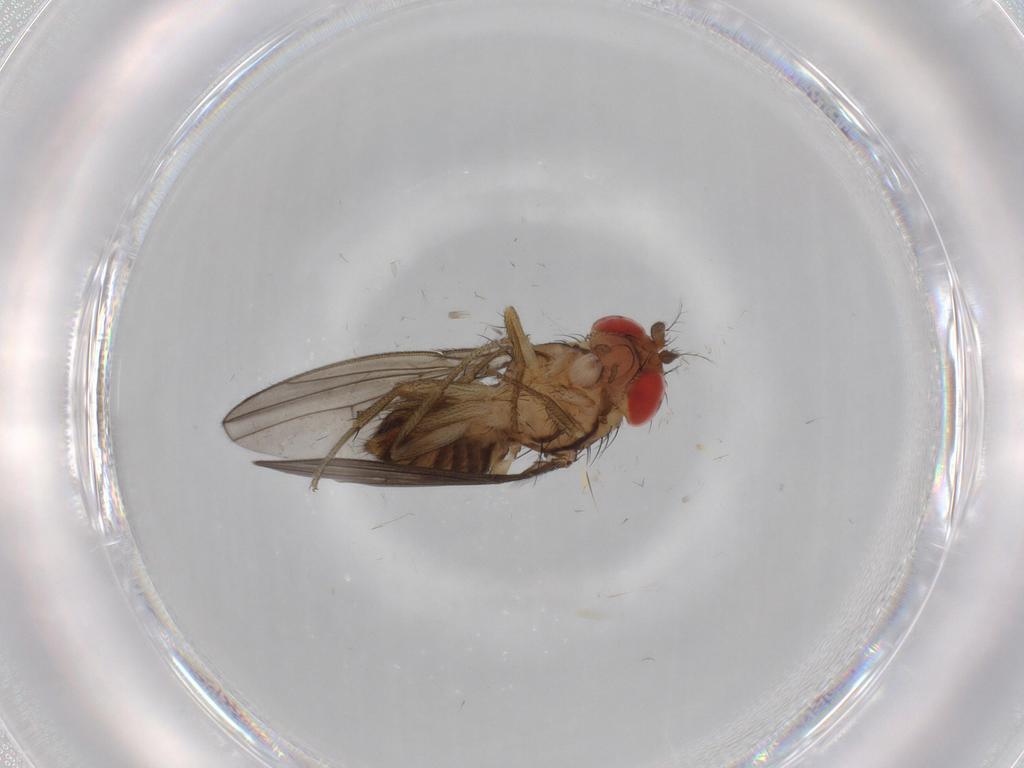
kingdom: Animalia
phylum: Arthropoda
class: Insecta
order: Diptera
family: Drosophilidae
